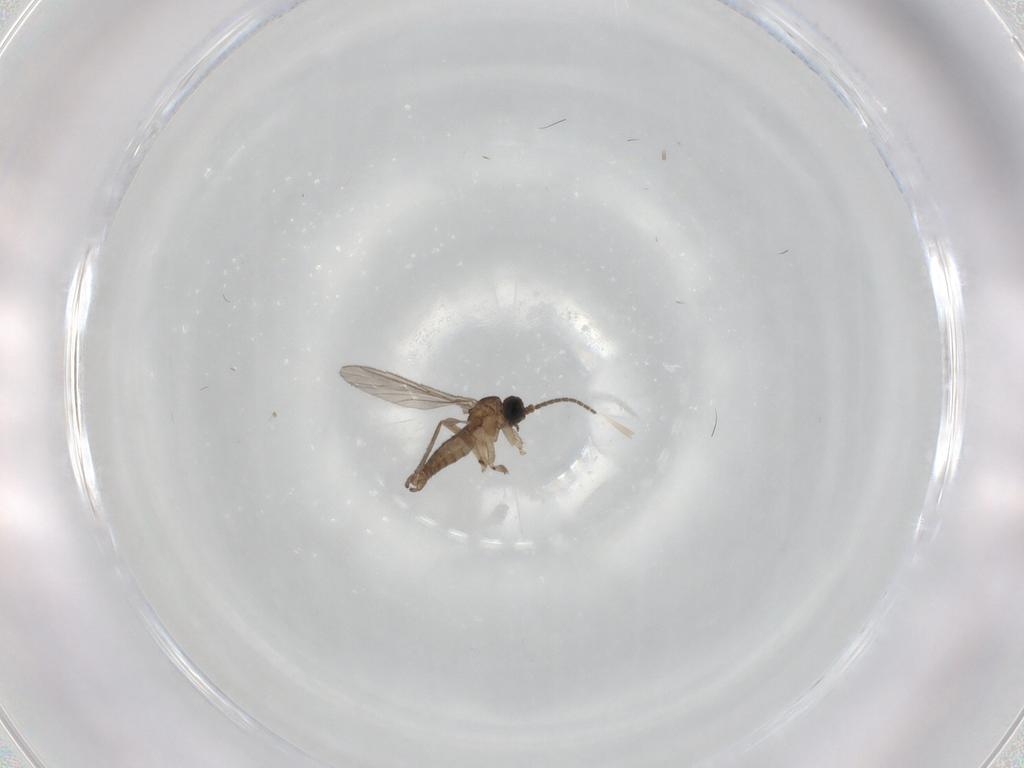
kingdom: Animalia
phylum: Arthropoda
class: Insecta
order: Diptera
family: Sciaridae
